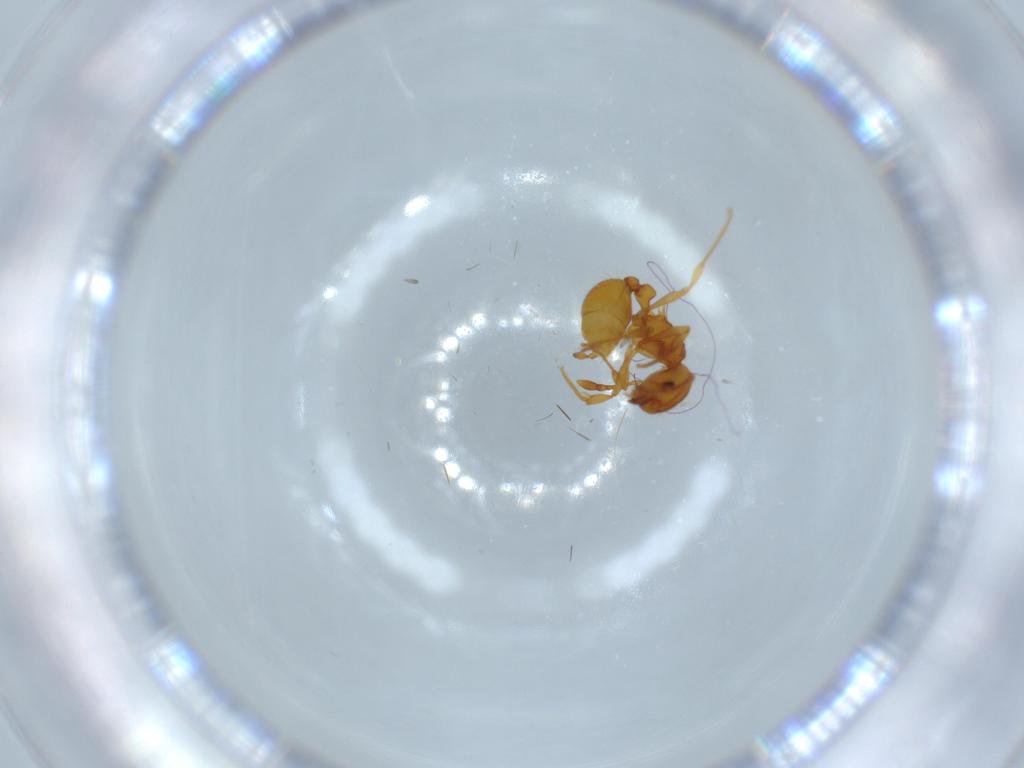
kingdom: Animalia
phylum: Arthropoda
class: Insecta
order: Hymenoptera
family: Formicidae
